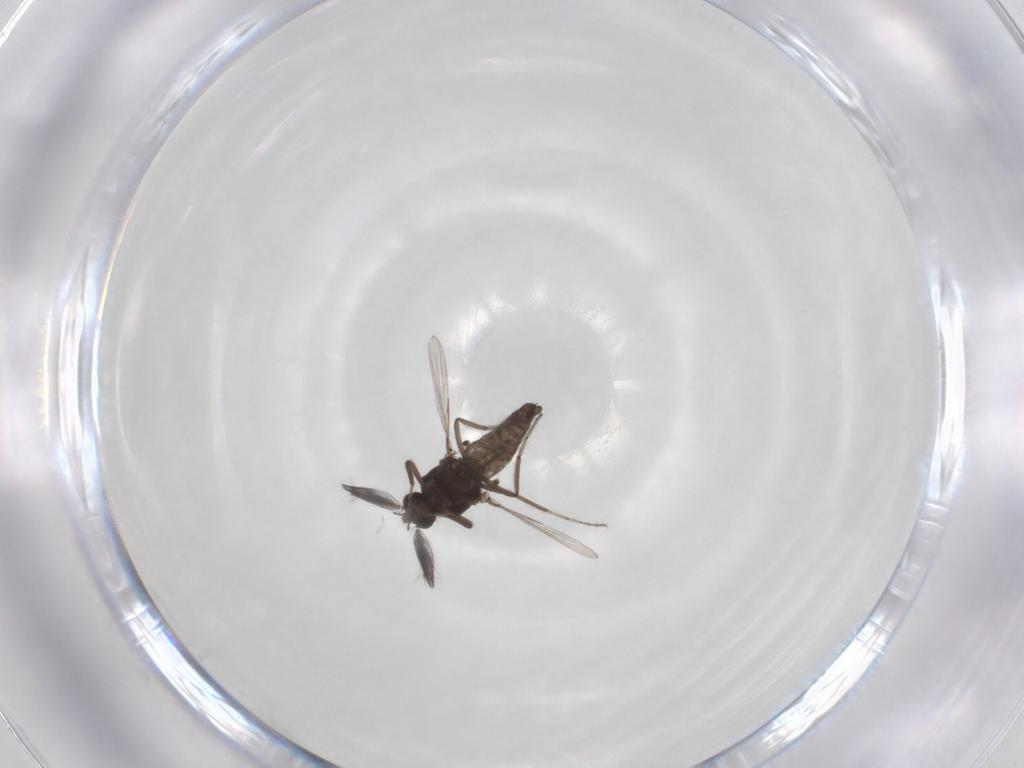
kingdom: Animalia
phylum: Arthropoda
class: Insecta
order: Diptera
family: Ceratopogonidae
